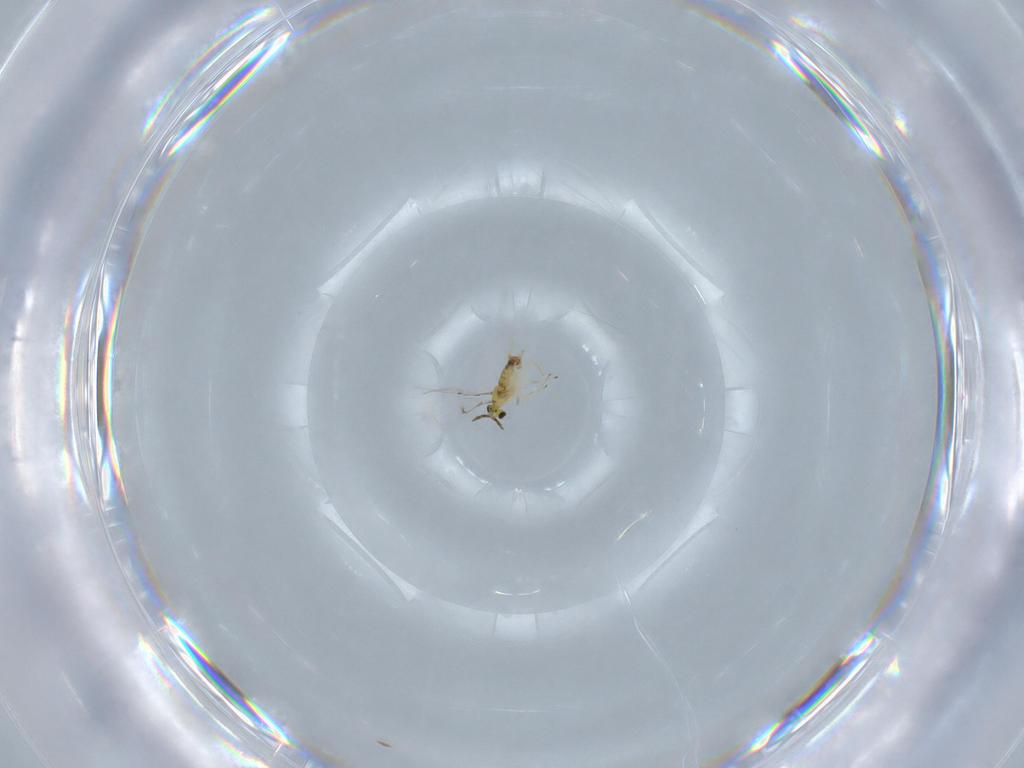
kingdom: Animalia
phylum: Arthropoda
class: Insecta
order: Hymenoptera
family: Trichogrammatidae
